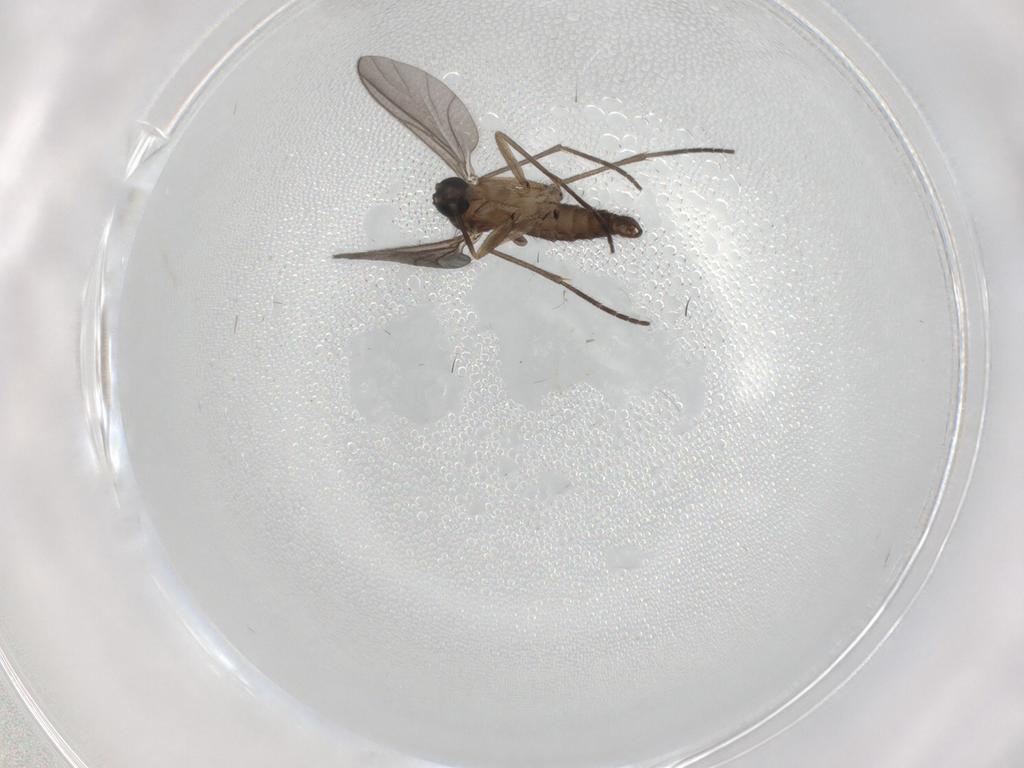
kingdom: Animalia
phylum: Arthropoda
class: Insecta
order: Diptera
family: Sciaridae
